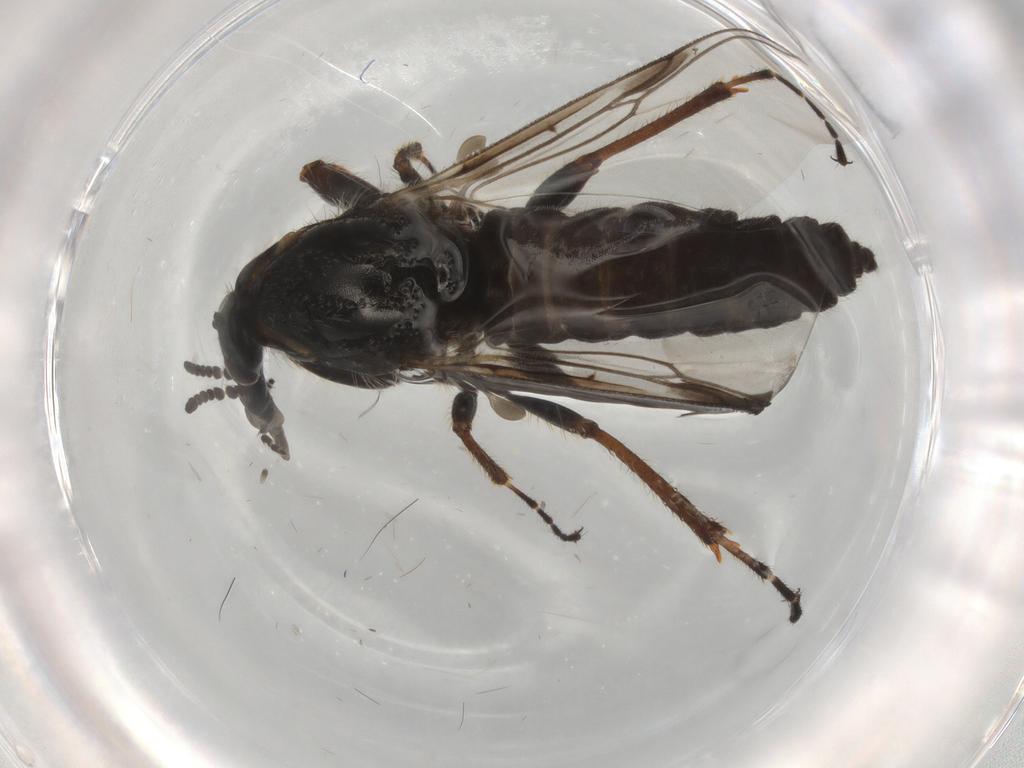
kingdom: Animalia
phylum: Arthropoda
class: Insecta
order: Diptera
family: Bibionidae
